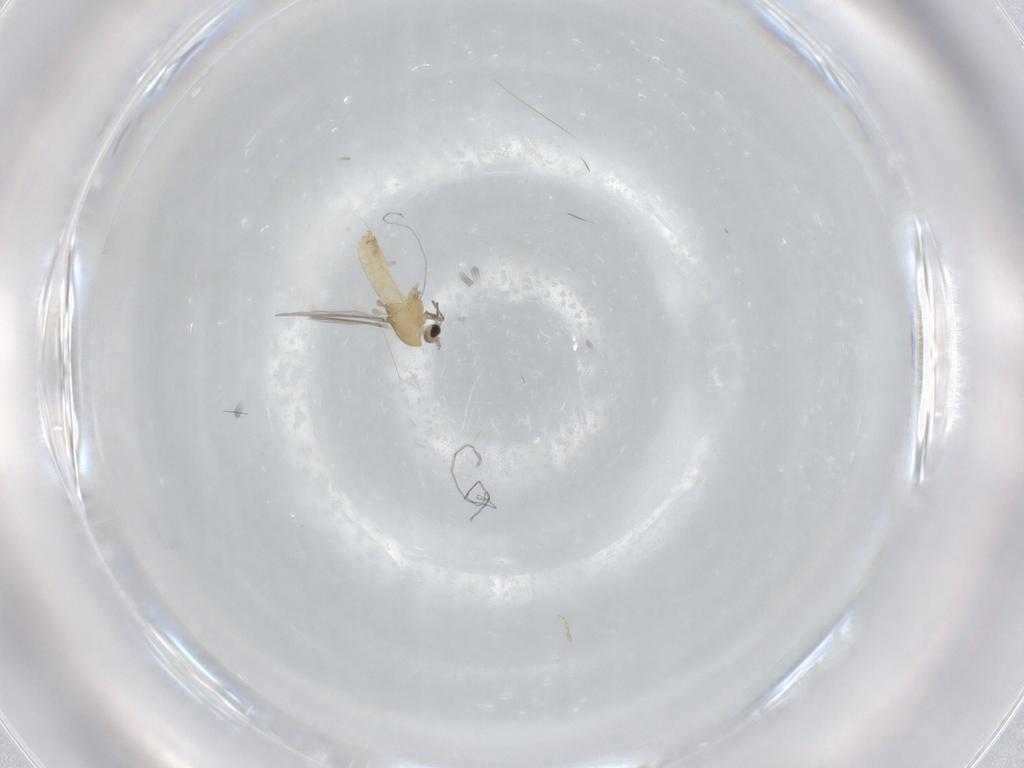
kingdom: Animalia
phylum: Arthropoda
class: Insecta
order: Diptera
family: Chironomidae
